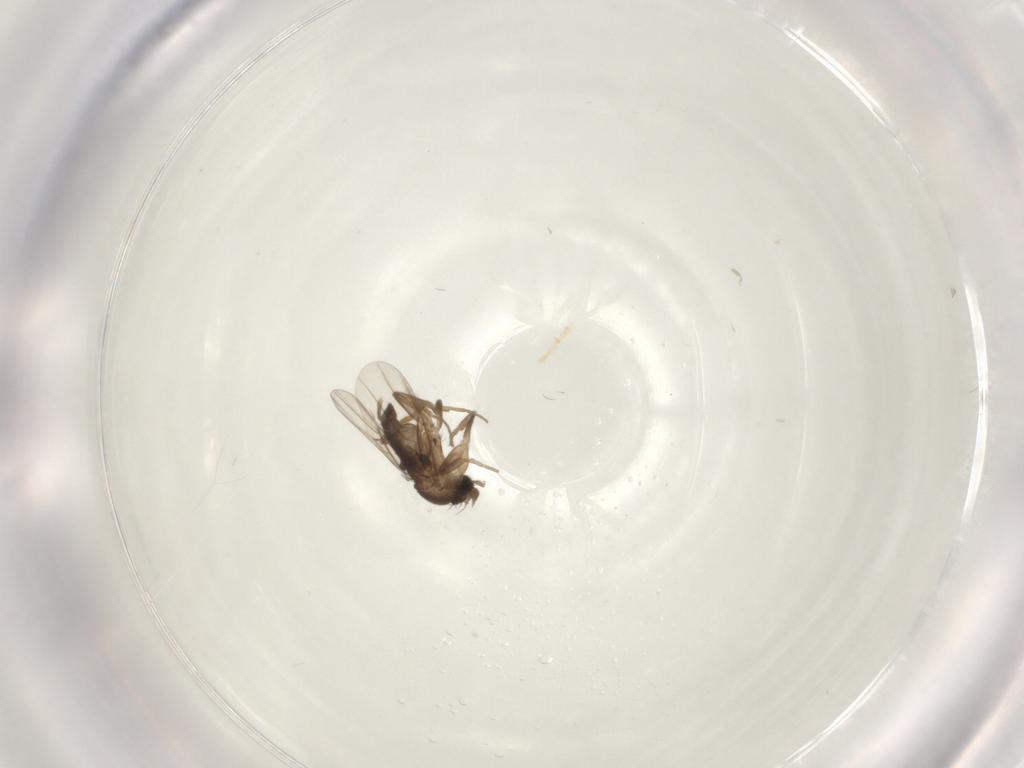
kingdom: Animalia
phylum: Arthropoda
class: Insecta
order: Diptera
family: Phoridae
